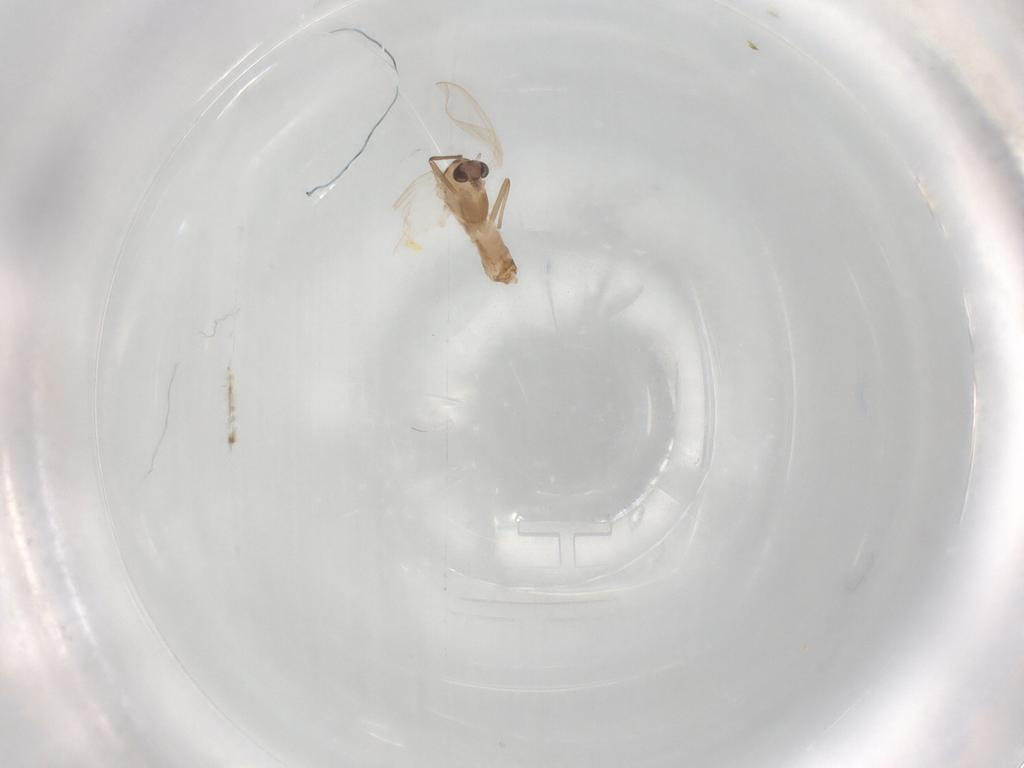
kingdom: Animalia
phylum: Arthropoda
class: Insecta
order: Diptera
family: Chironomidae
